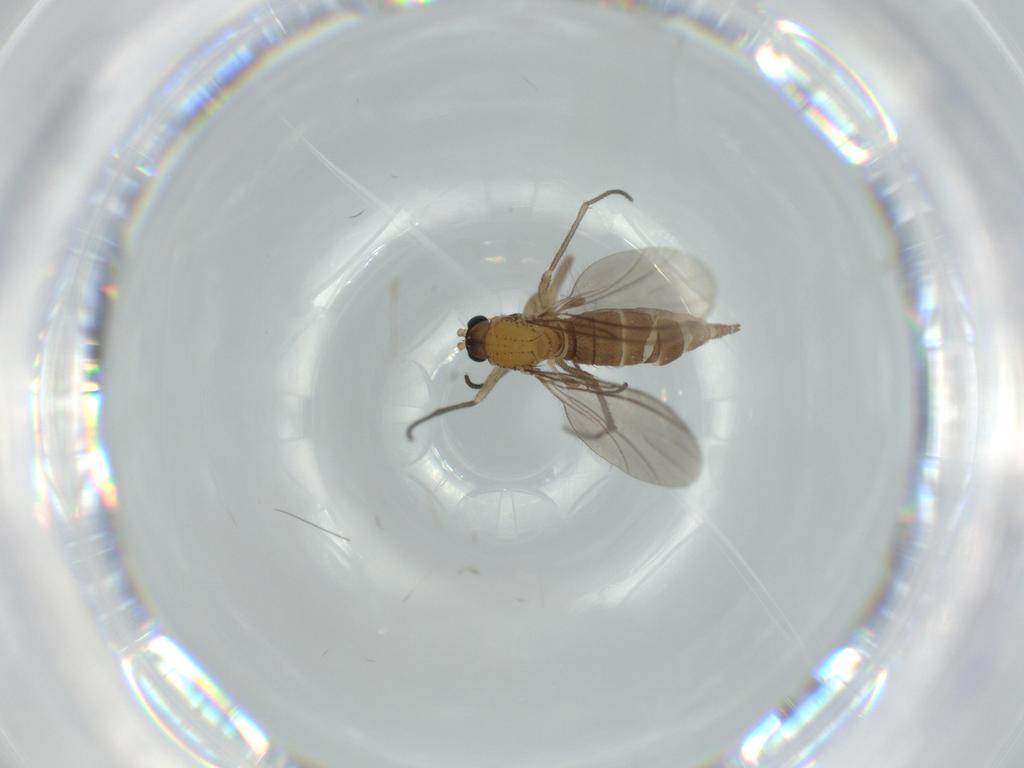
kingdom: Animalia
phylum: Arthropoda
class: Insecta
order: Diptera
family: Sciaridae
